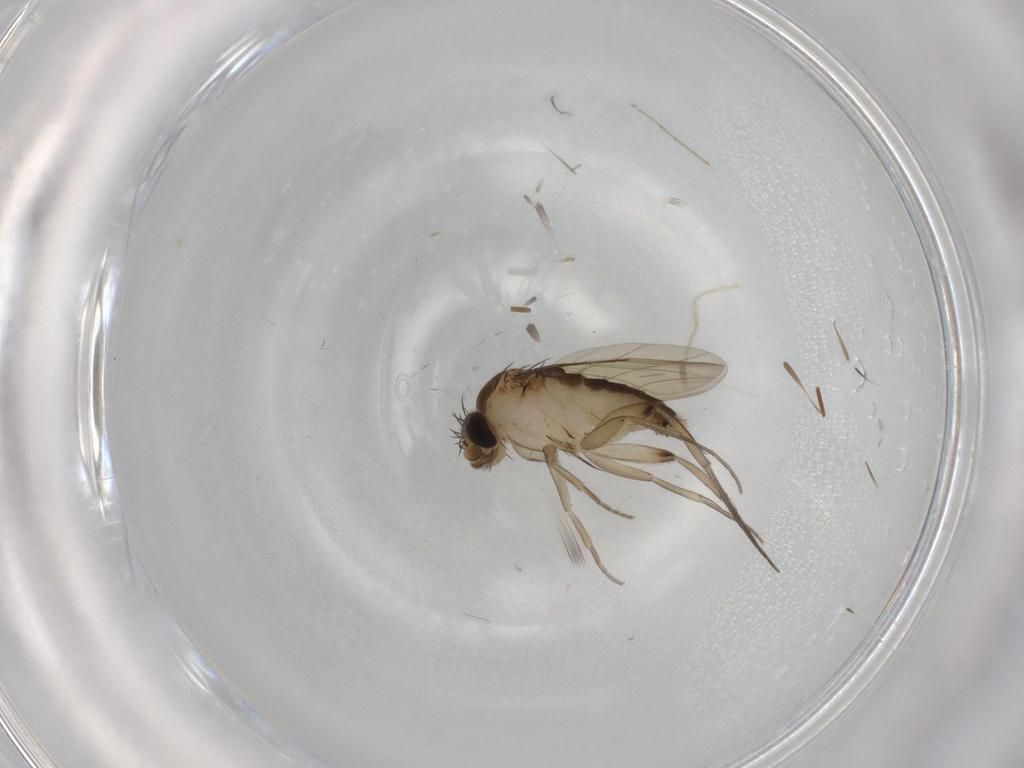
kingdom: Animalia
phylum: Arthropoda
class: Insecta
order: Diptera
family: Phoridae
